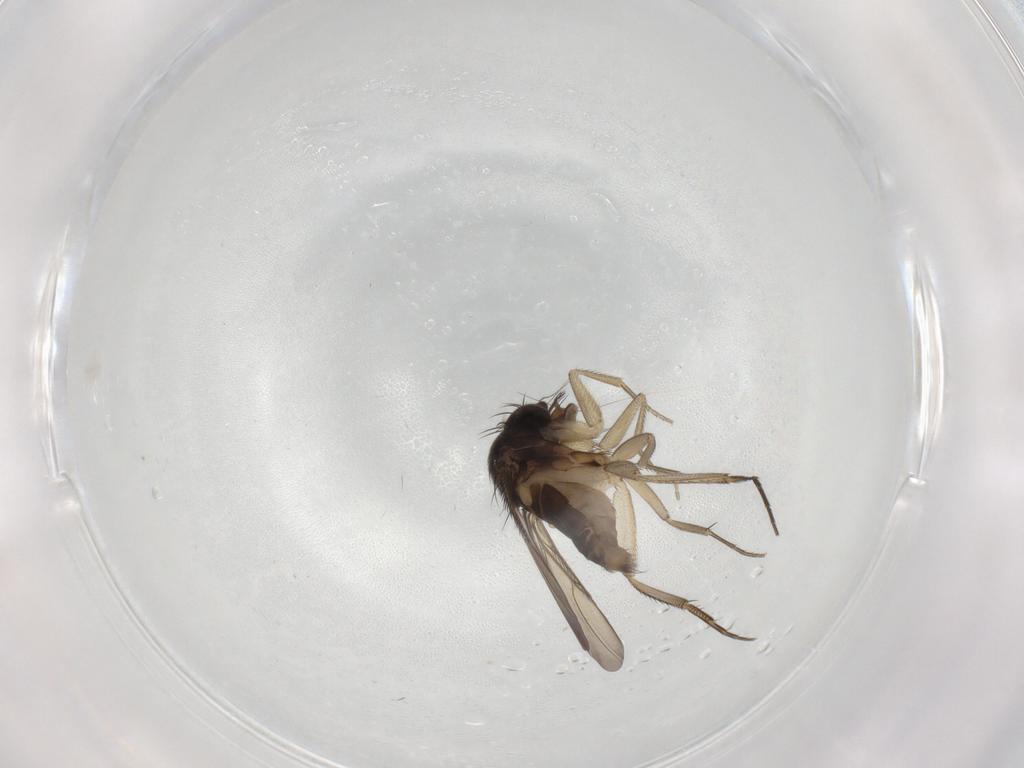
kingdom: Animalia
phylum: Arthropoda
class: Insecta
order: Diptera
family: Phoridae
